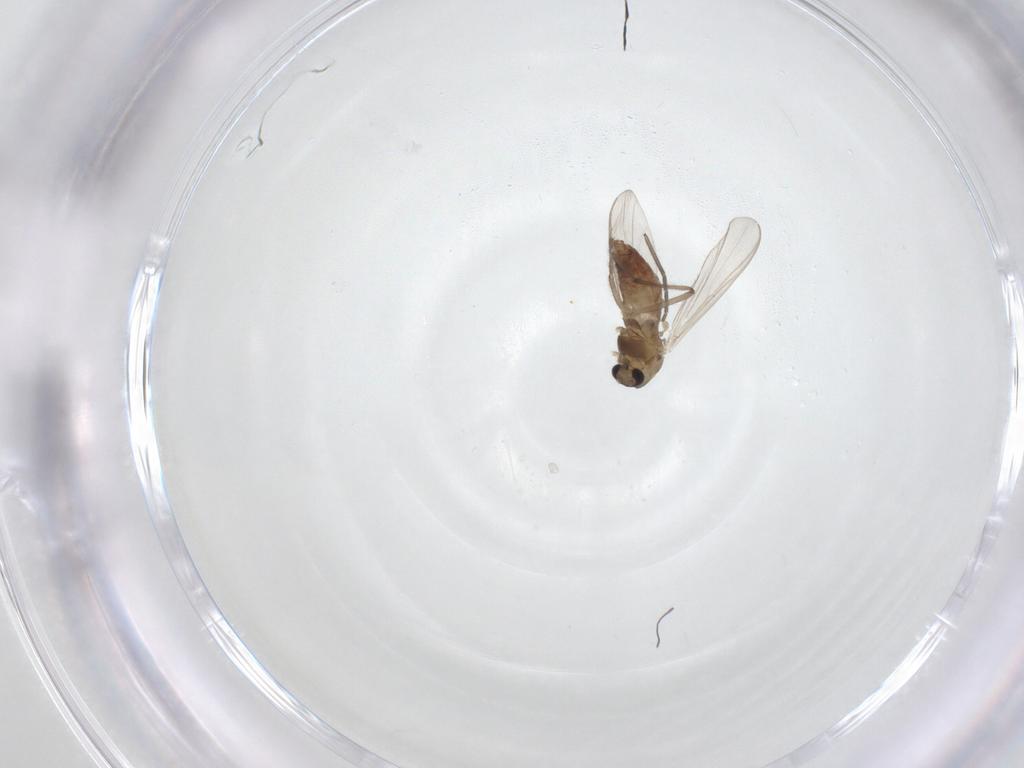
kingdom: Animalia
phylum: Arthropoda
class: Insecta
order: Diptera
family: Chironomidae
